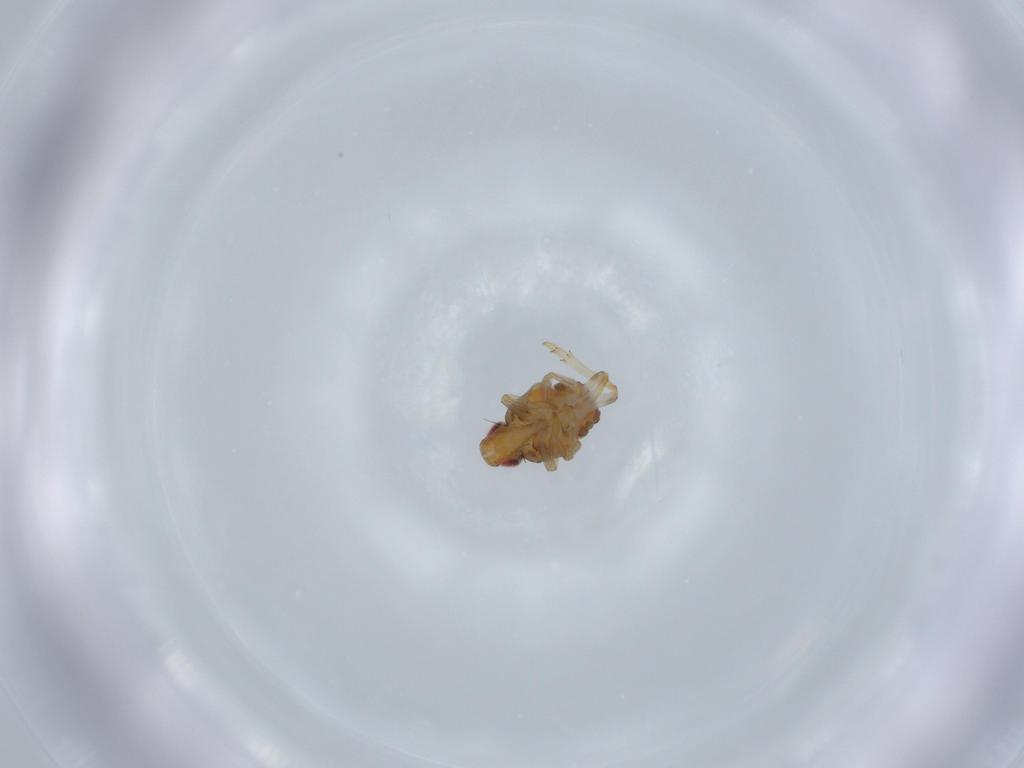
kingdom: Animalia
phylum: Arthropoda
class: Insecta
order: Hemiptera
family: Issidae
